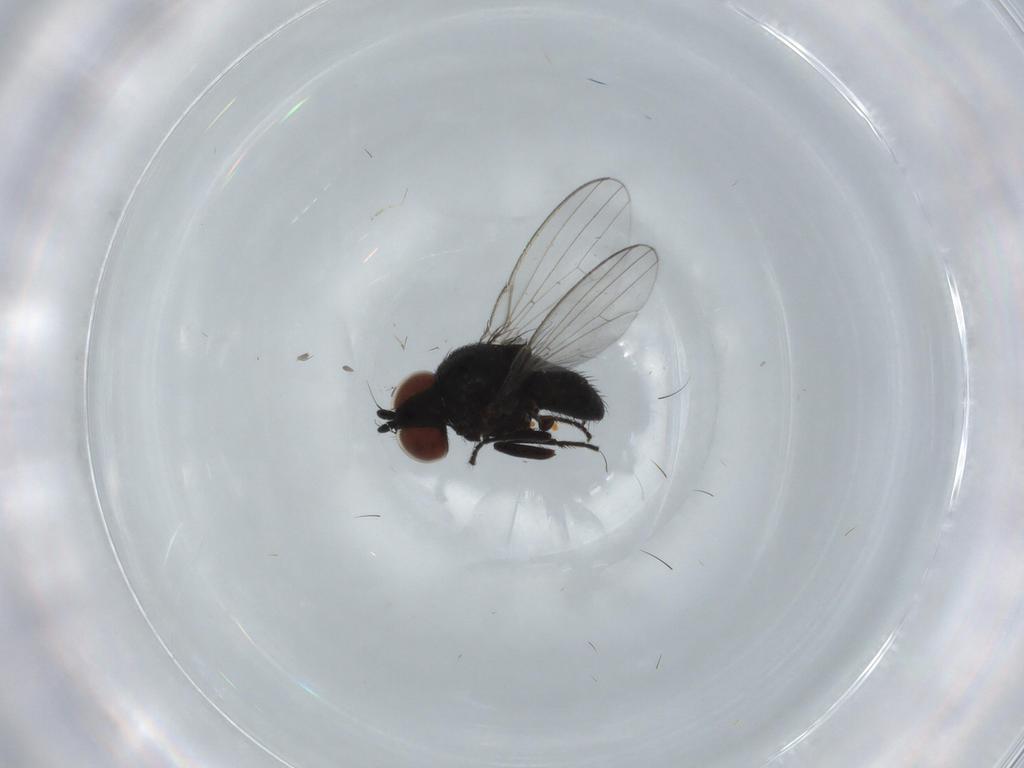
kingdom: Animalia
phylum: Arthropoda
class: Insecta
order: Diptera
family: Milichiidae
